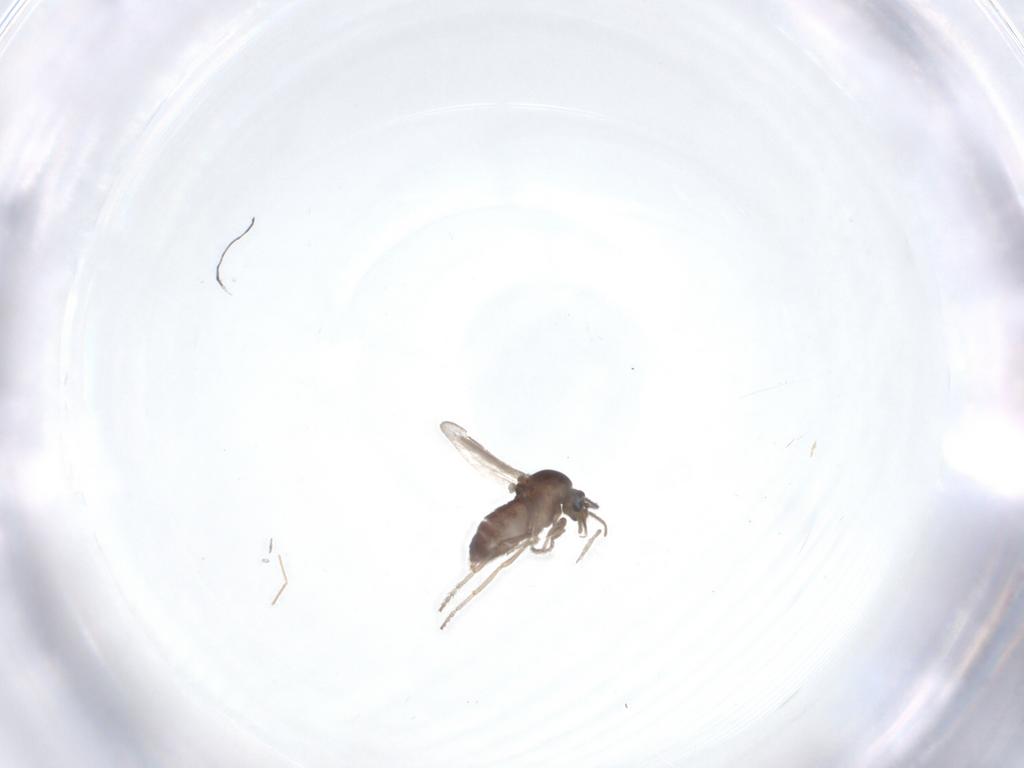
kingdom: Animalia
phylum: Arthropoda
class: Insecta
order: Diptera
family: Ceratopogonidae
